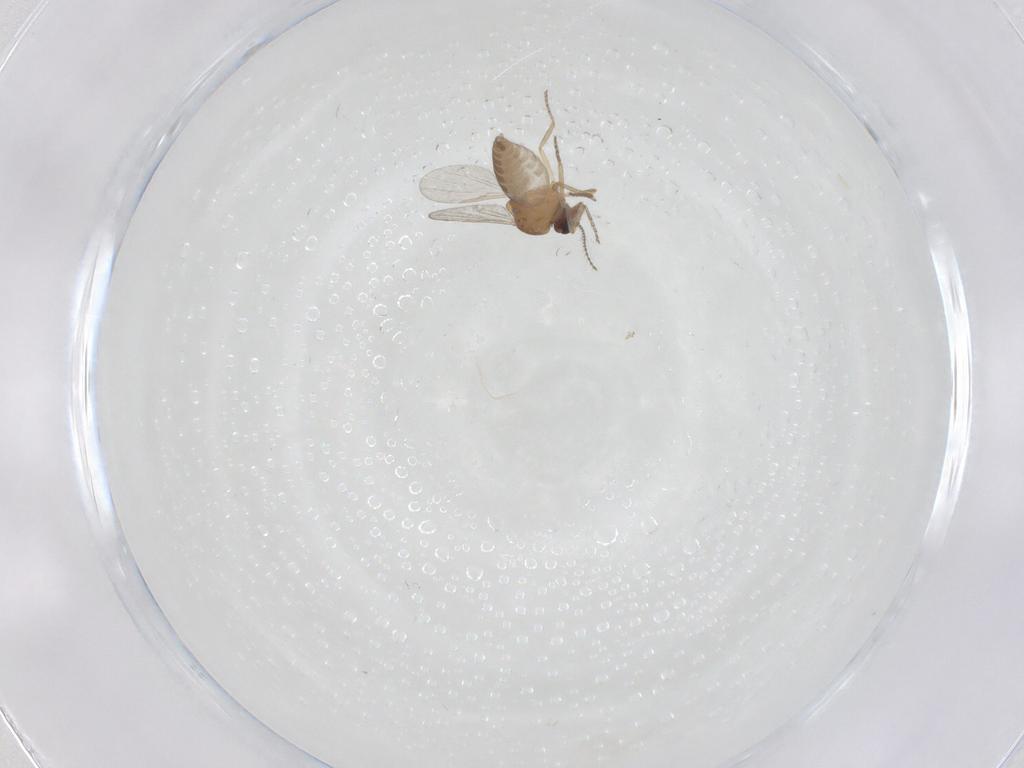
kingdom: Animalia
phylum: Arthropoda
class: Insecta
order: Diptera
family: Ceratopogonidae
